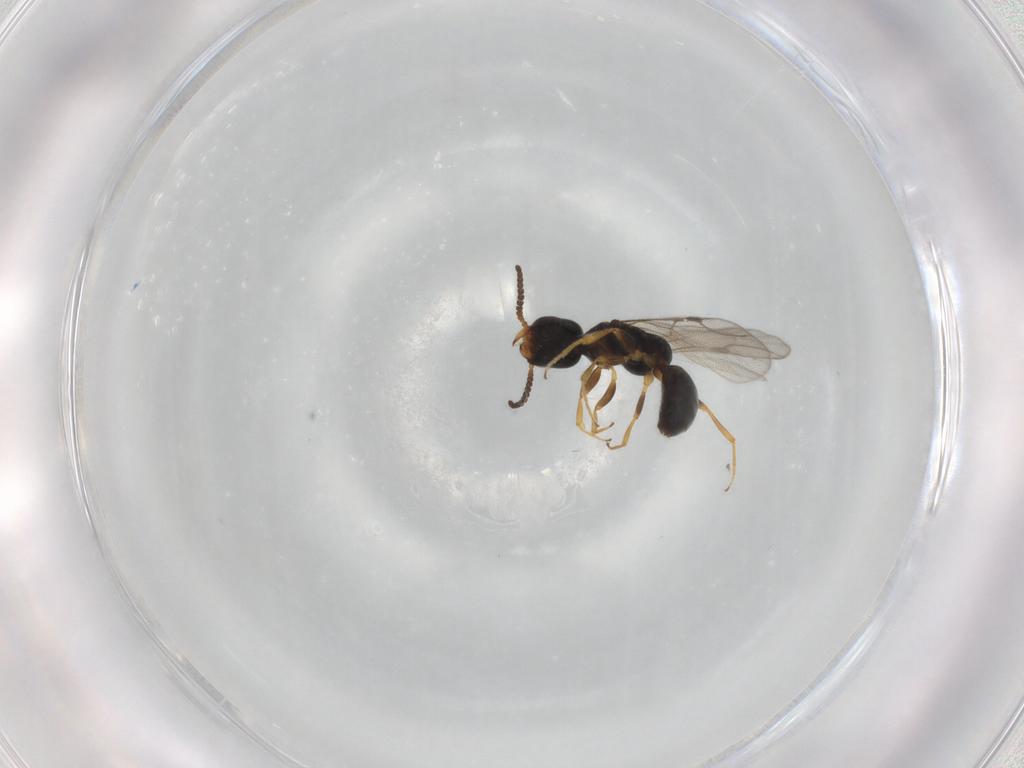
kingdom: Animalia
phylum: Arthropoda
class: Insecta
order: Hymenoptera
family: Bethylidae
